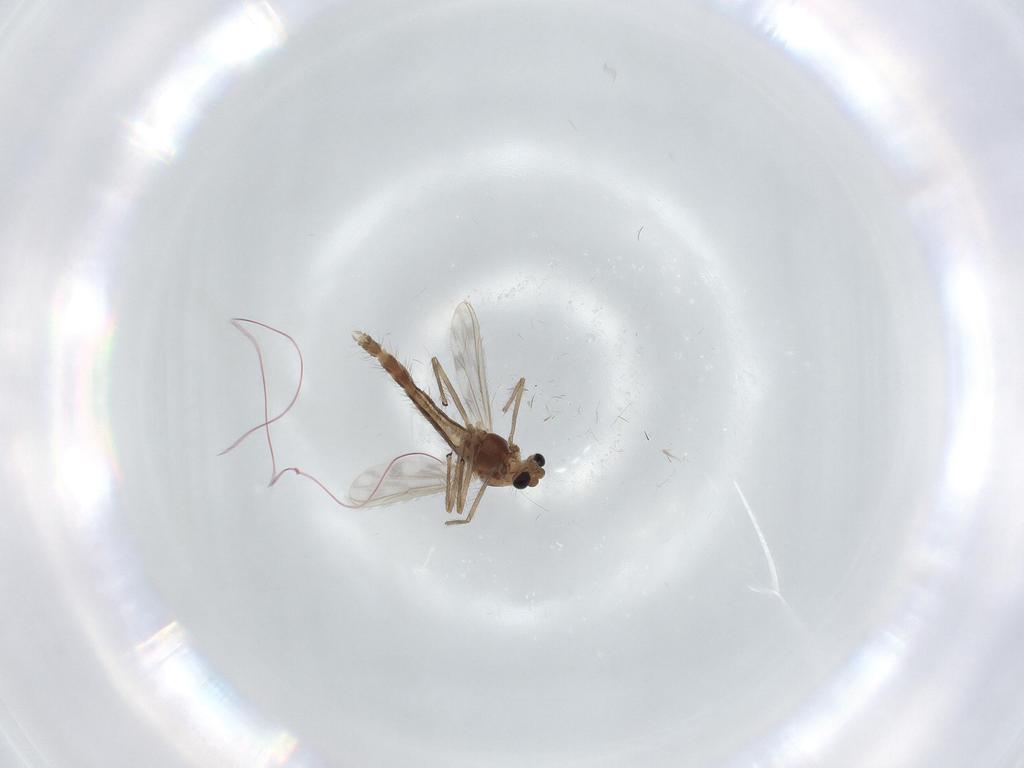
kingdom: Animalia
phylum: Arthropoda
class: Insecta
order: Diptera
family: Chironomidae
